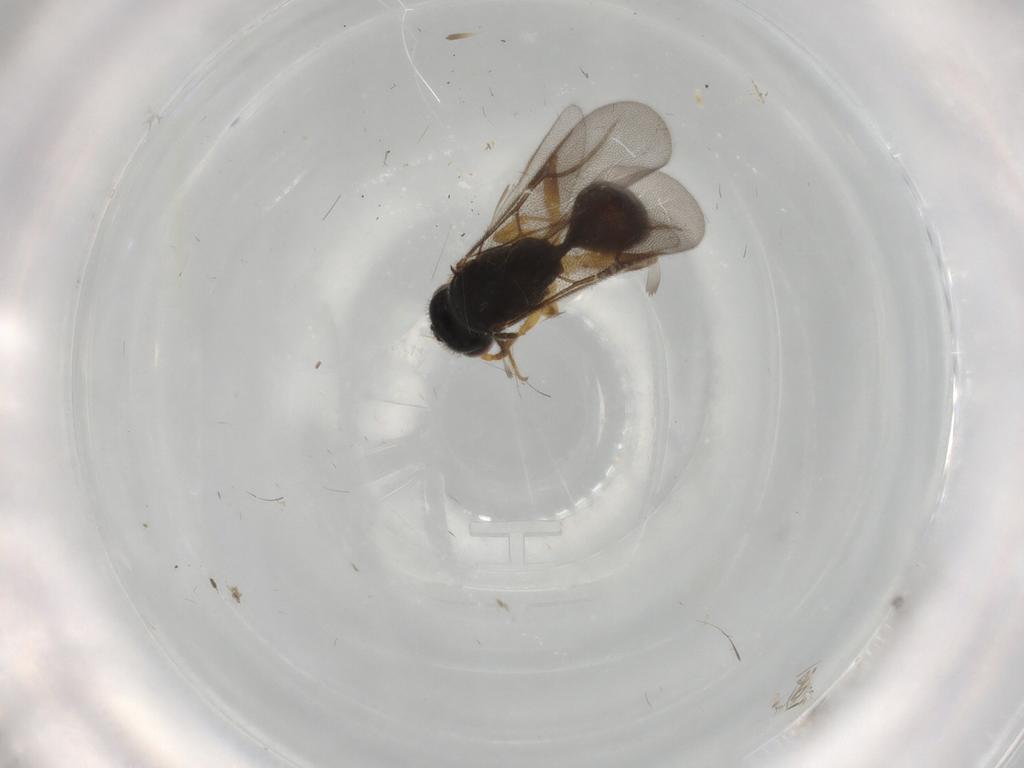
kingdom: Animalia
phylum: Arthropoda
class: Insecta
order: Hymenoptera
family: Bethylidae
